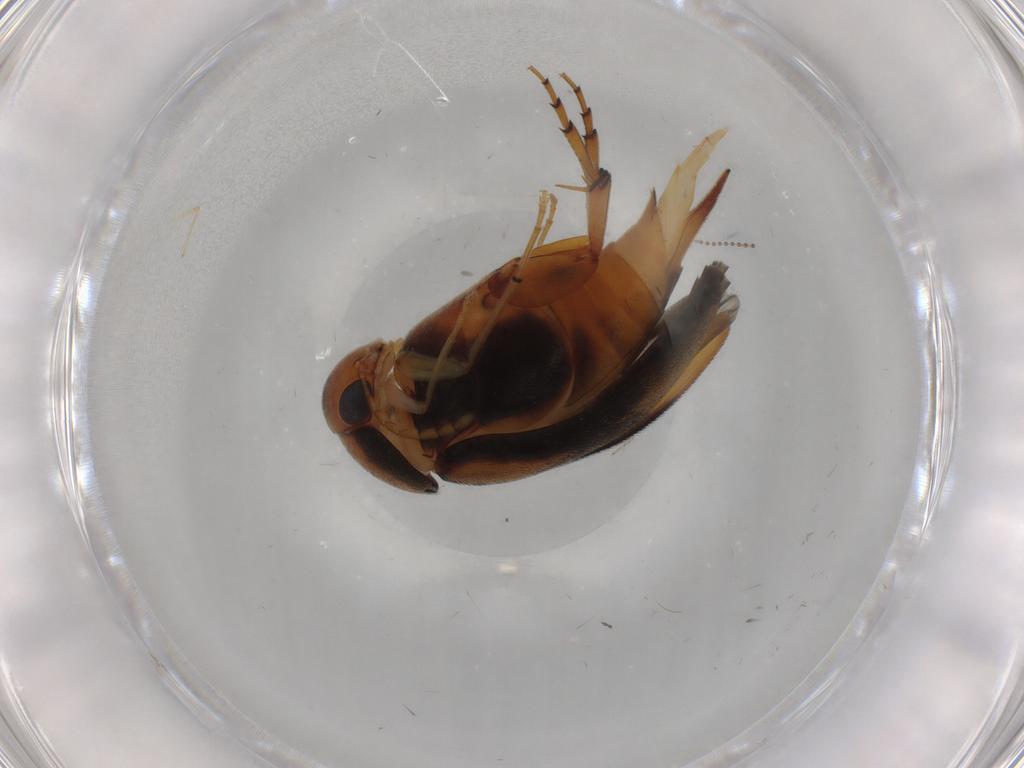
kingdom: Animalia
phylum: Arthropoda
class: Insecta
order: Coleoptera
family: Mordellidae
